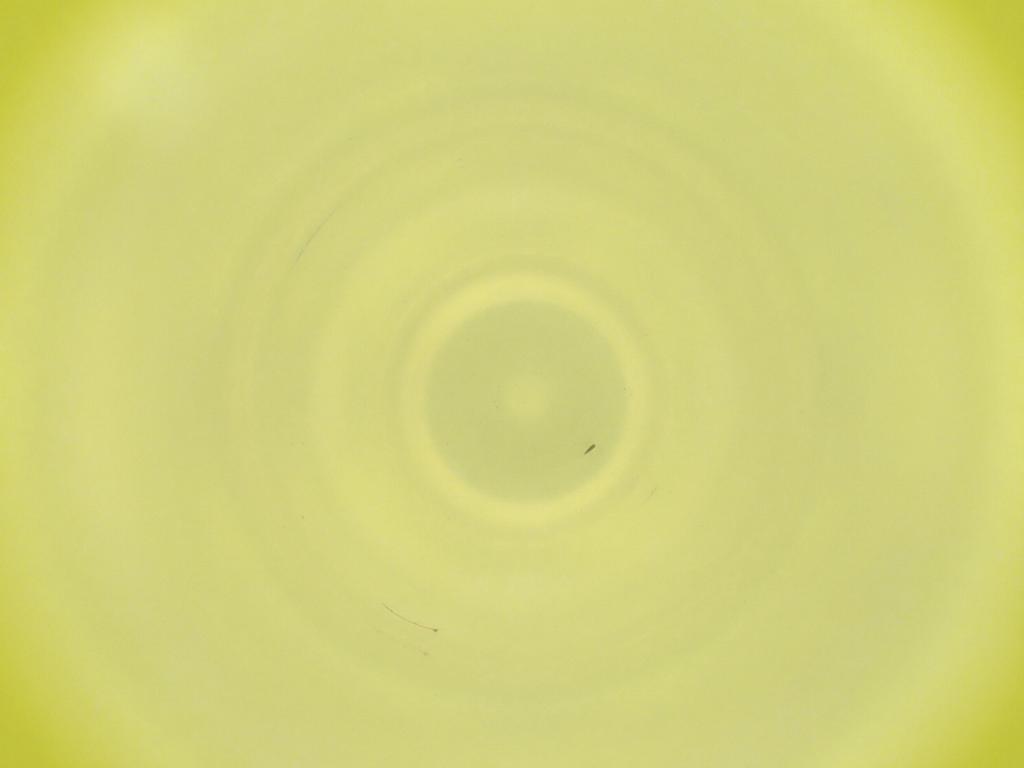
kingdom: Animalia
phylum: Arthropoda
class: Insecta
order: Diptera
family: Cecidomyiidae
